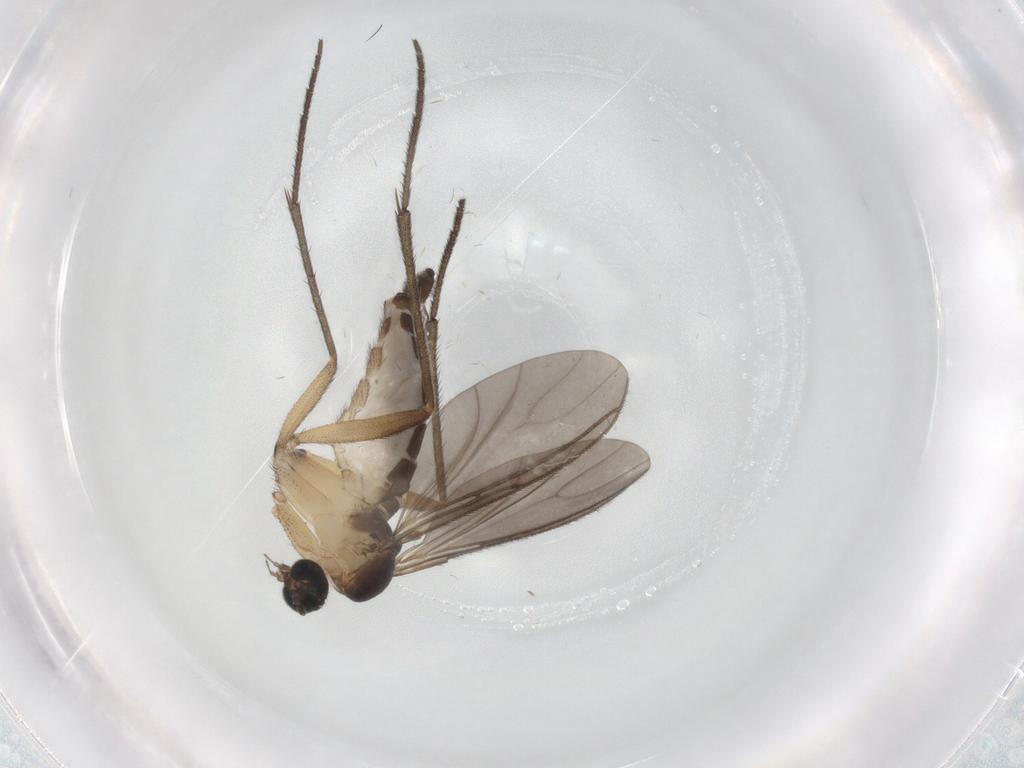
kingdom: Animalia
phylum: Arthropoda
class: Insecta
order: Diptera
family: Sciaridae
